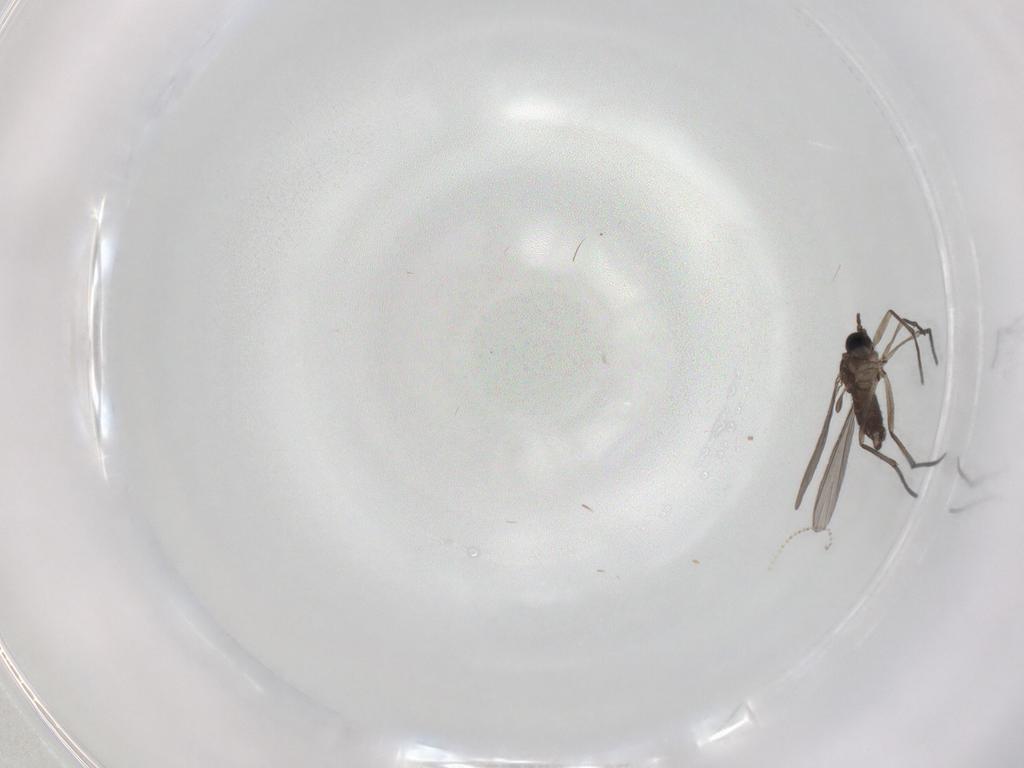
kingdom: Animalia
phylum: Arthropoda
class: Insecta
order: Diptera
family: Sciaridae
